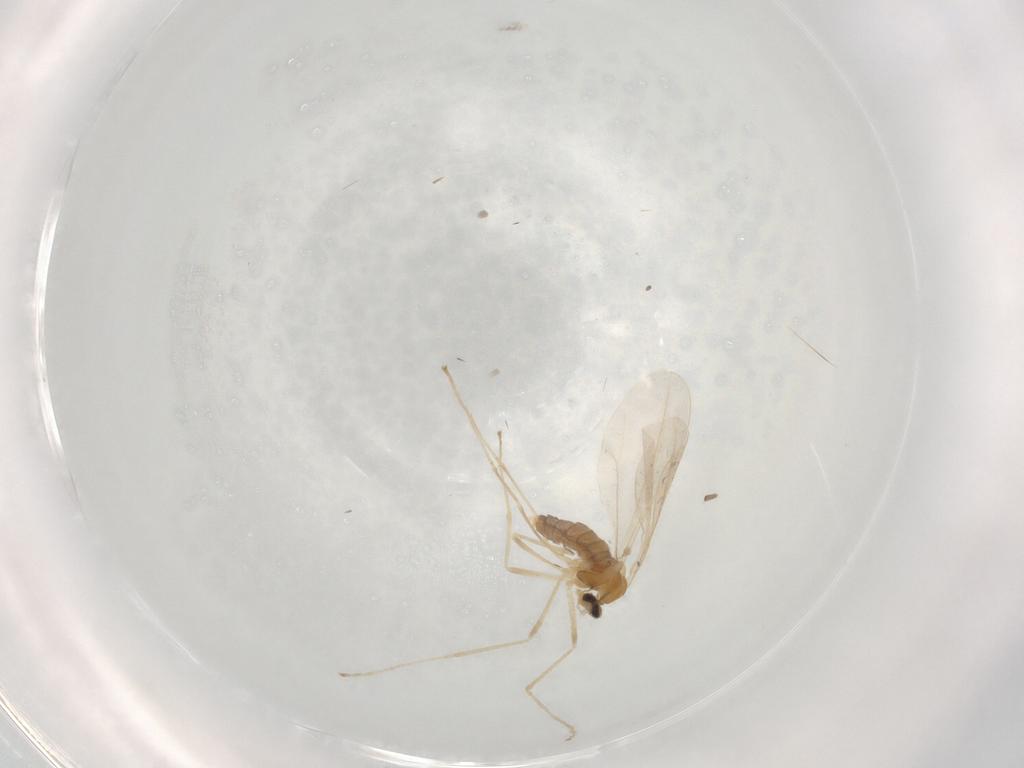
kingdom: Animalia
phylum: Arthropoda
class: Insecta
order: Diptera
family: Cecidomyiidae
